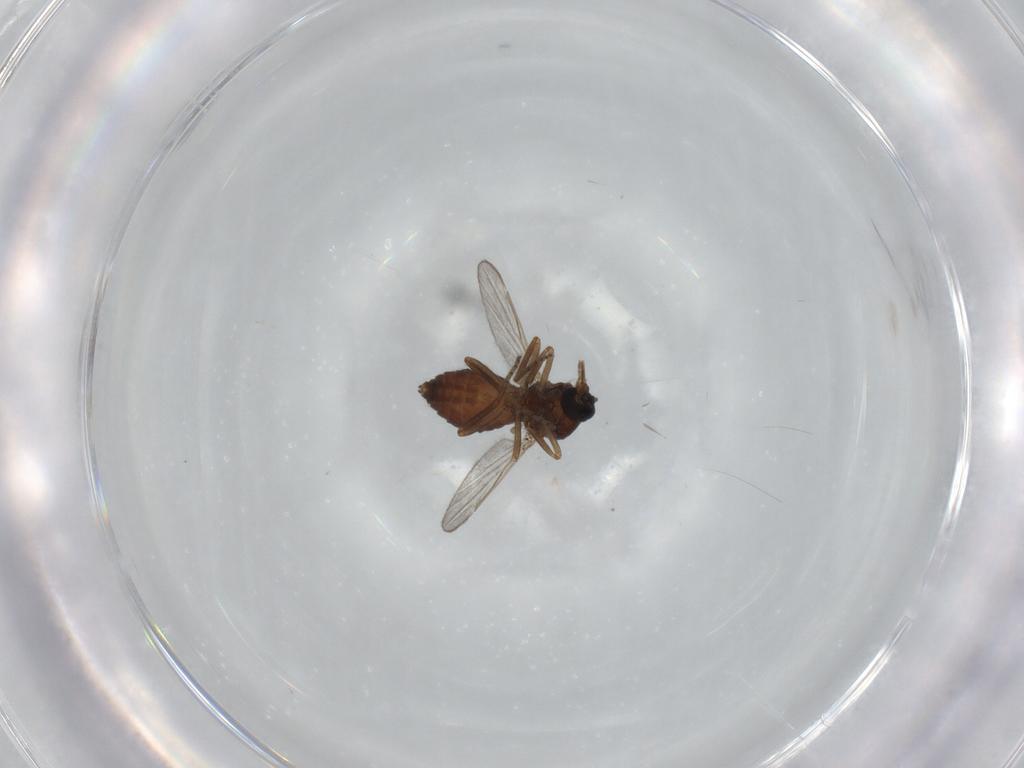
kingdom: Animalia
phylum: Arthropoda
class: Insecta
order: Diptera
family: Ceratopogonidae
